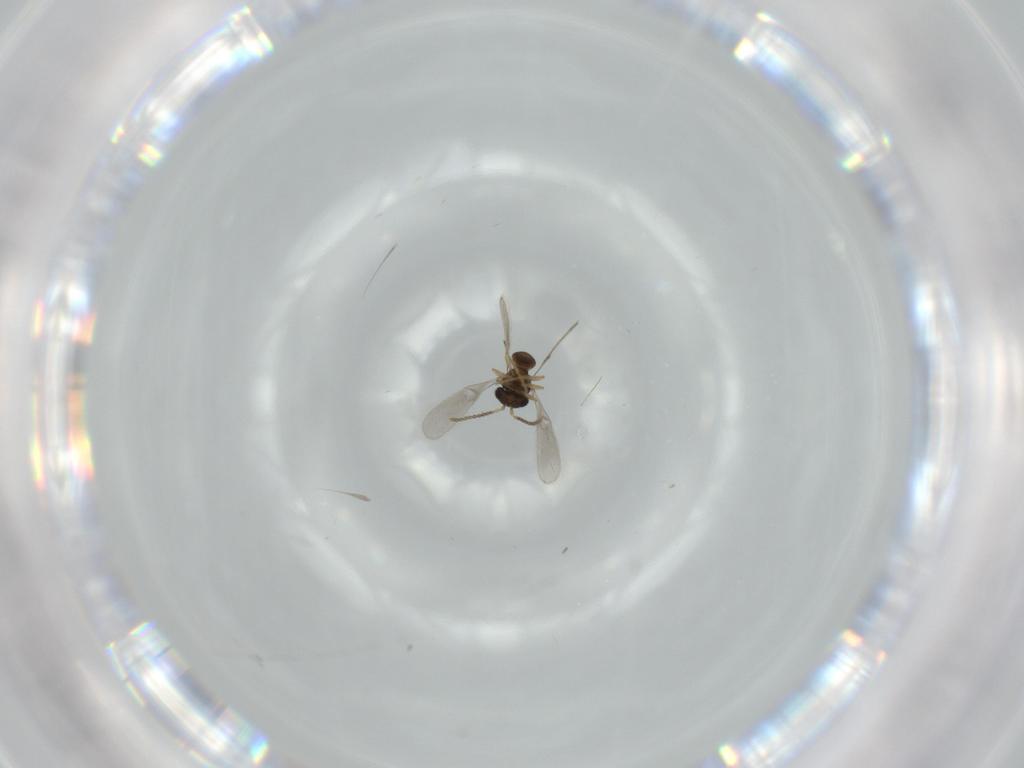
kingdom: Animalia
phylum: Arthropoda
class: Insecta
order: Hymenoptera
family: Scelionidae
